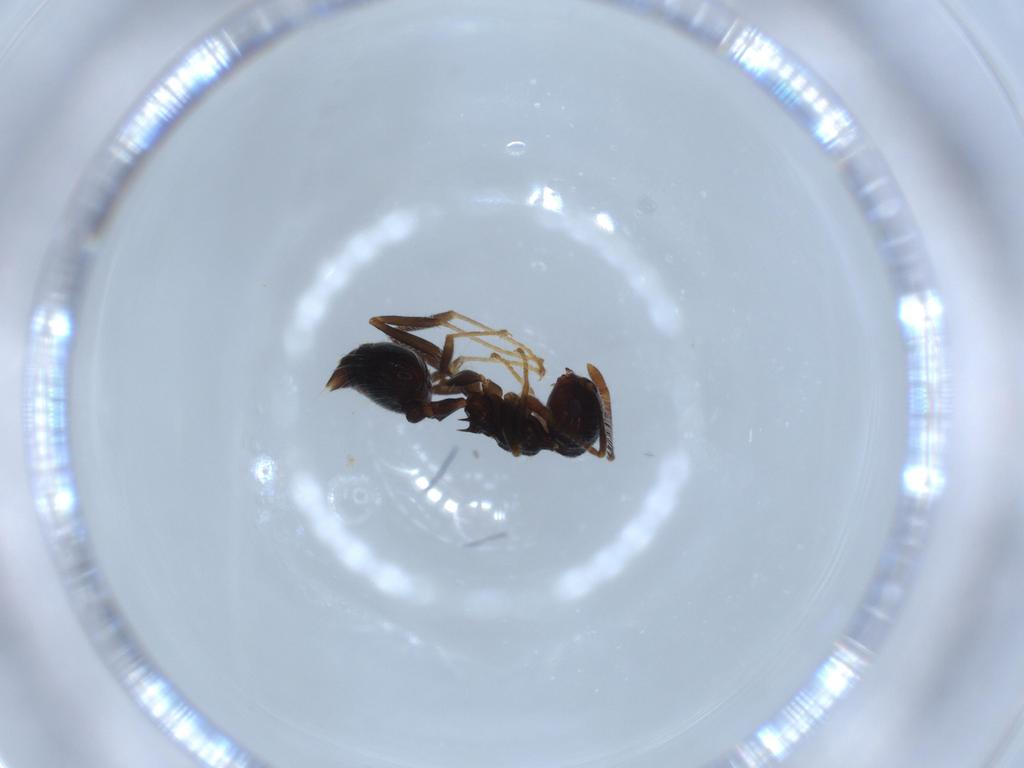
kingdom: Animalia
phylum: Arthropoda
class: Insecta
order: Hymenoptera
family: Formicidae
